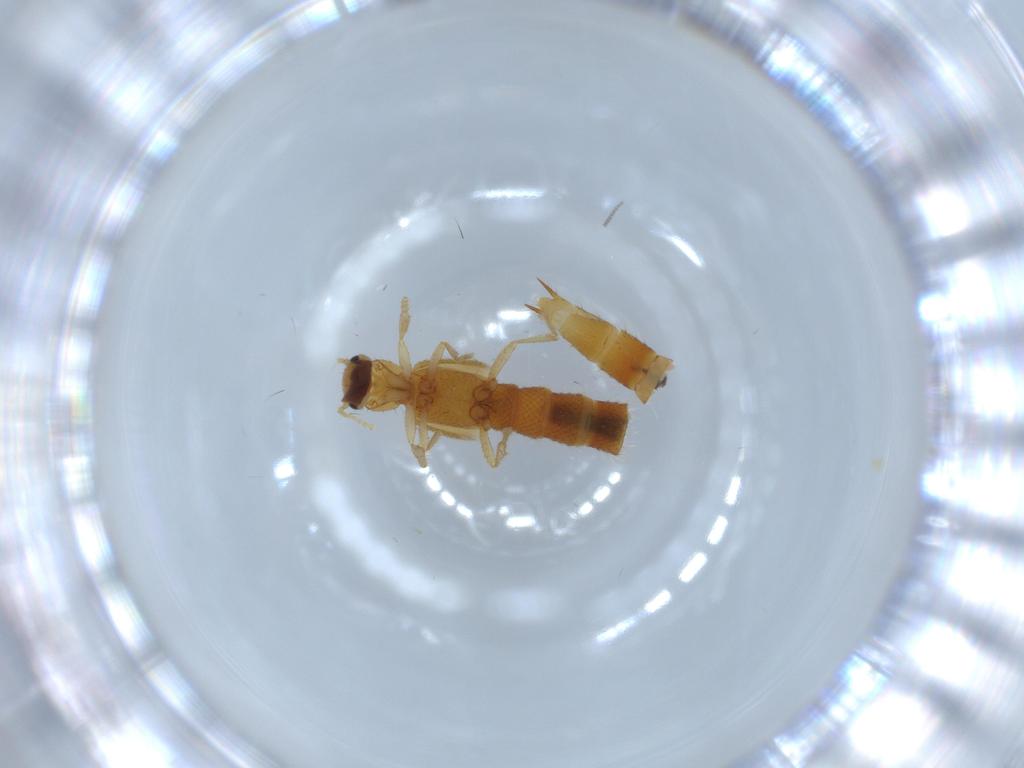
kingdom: Animalia
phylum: Arthropoda
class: Insecta
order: Coleoptera
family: Staphylinidae
